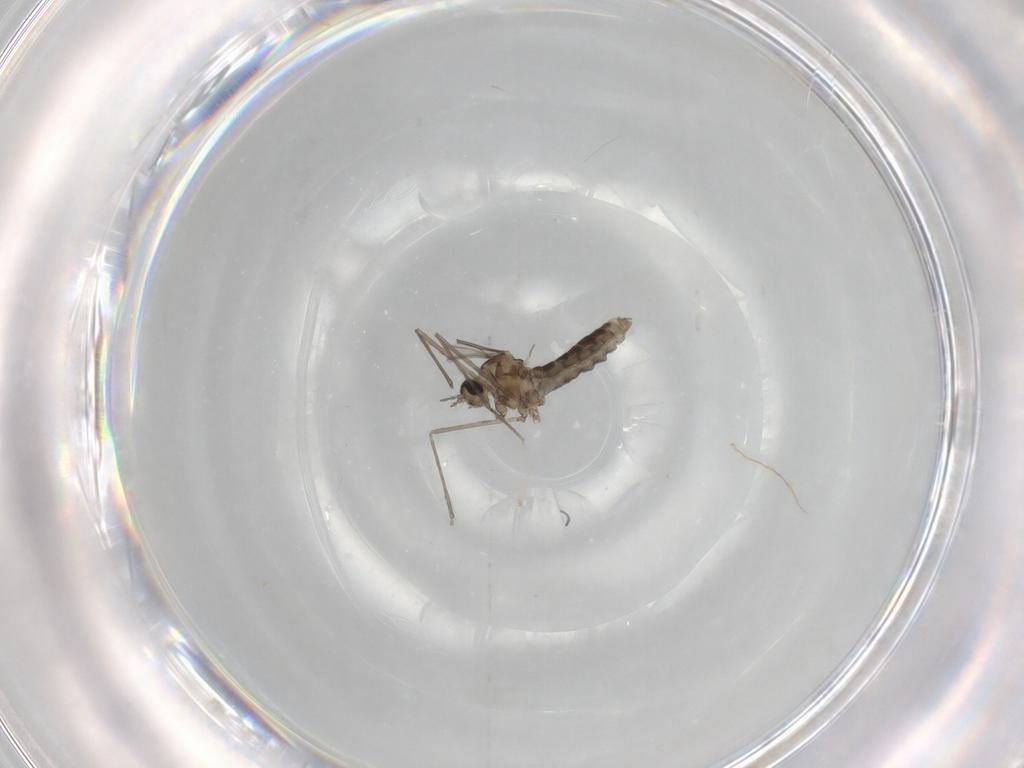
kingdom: Animalia
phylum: Arthropoda
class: Insecta
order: Diptera
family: Cecidomyiidae
